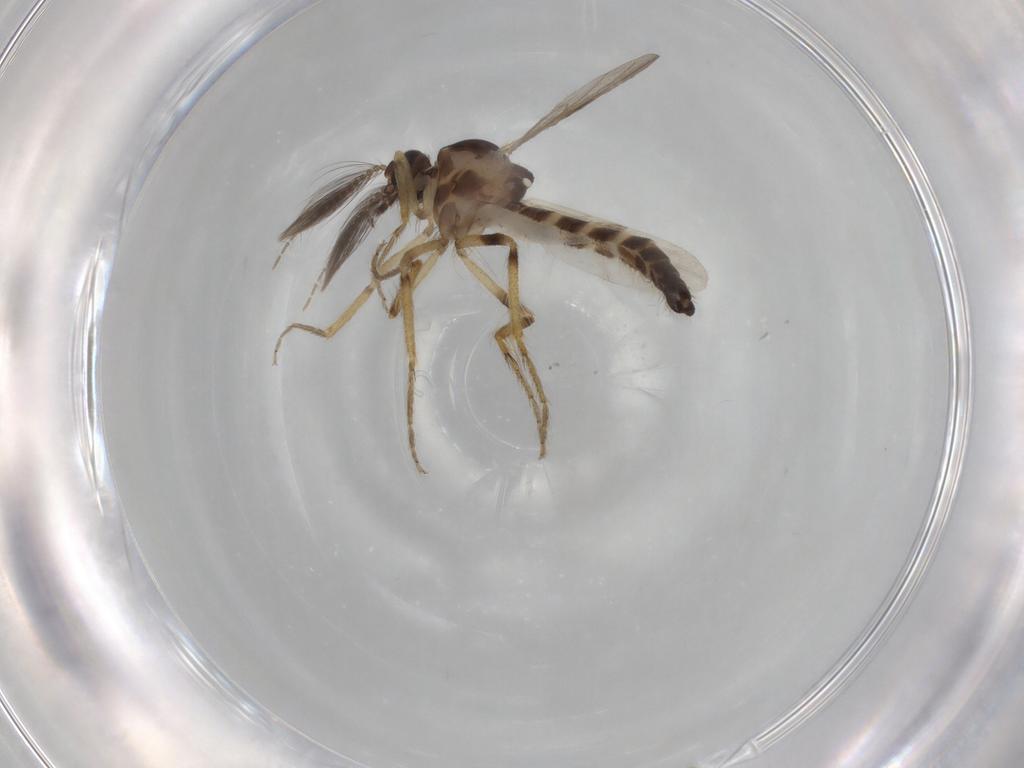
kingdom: Animalia
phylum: Arthropoda
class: Insecta
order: Diptera
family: Ceratopogonidae
